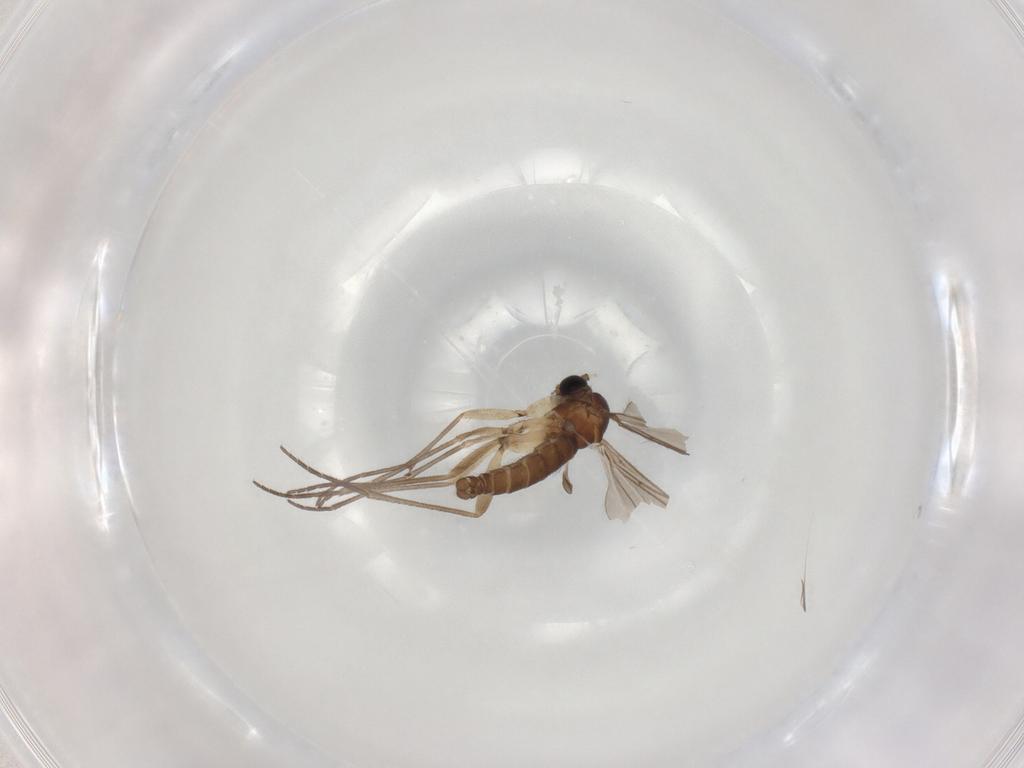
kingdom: Animalia
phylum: Arthropoda
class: Insecta
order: Diptera
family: Sciaridae
